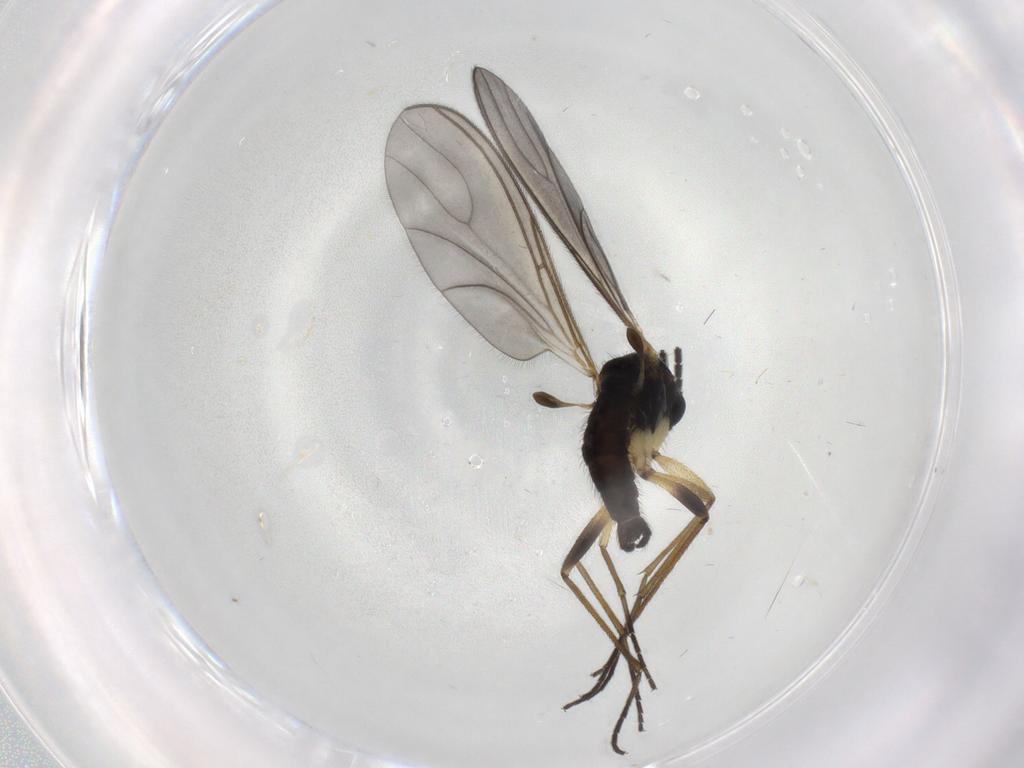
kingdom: Animalia
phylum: Arthropoda
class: Insecta
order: Diptera
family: Sciaridae
